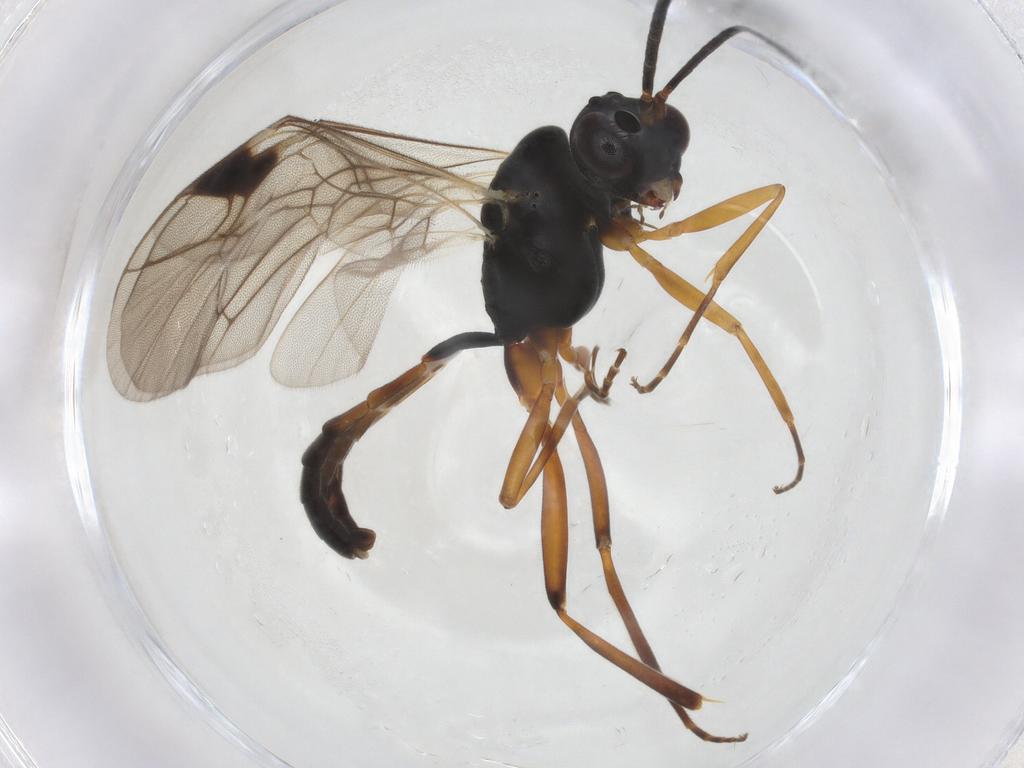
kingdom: Animalia
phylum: Arthropoda
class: Insecta
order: Hymenoptera
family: Ichneumonidae
